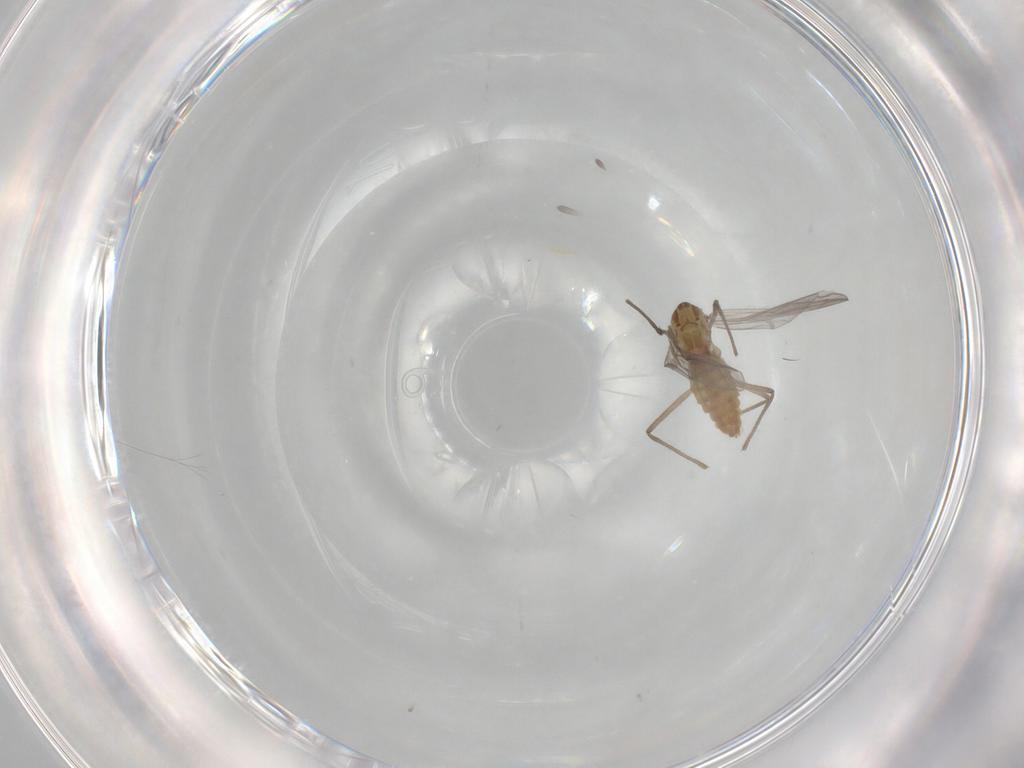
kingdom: Animalia
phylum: Arthropoda
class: Insecta
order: Diptera
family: Chironomidae
